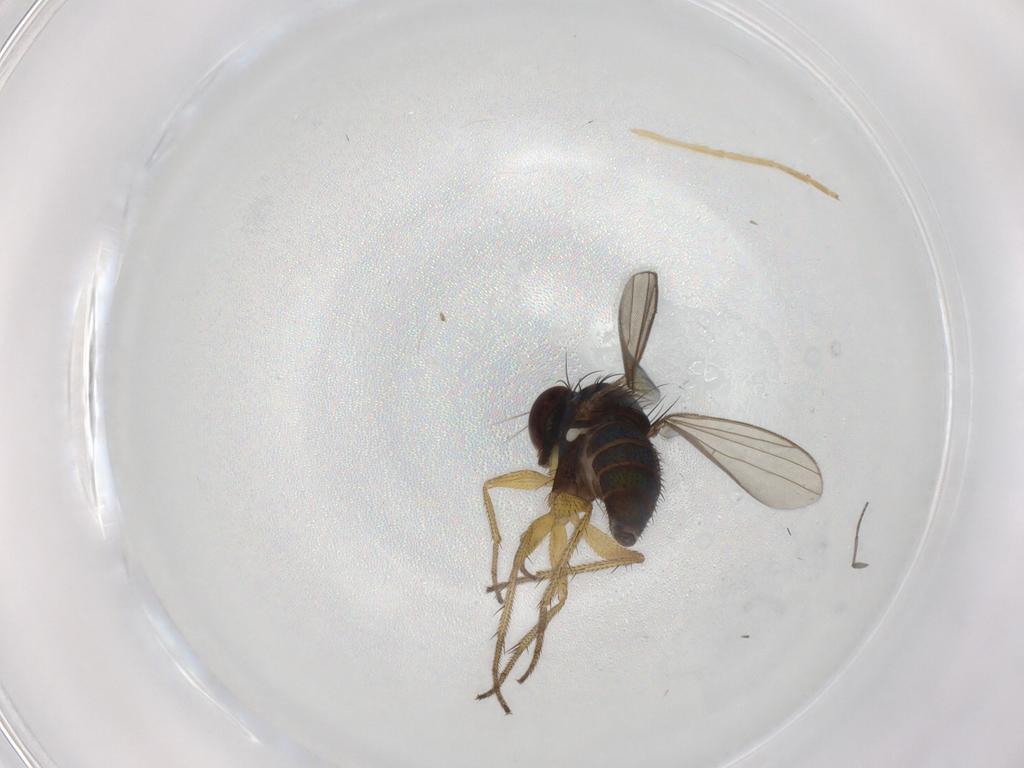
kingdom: Animalia
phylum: Arthropoda
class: Insecta
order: Diptera
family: Sciaridae
